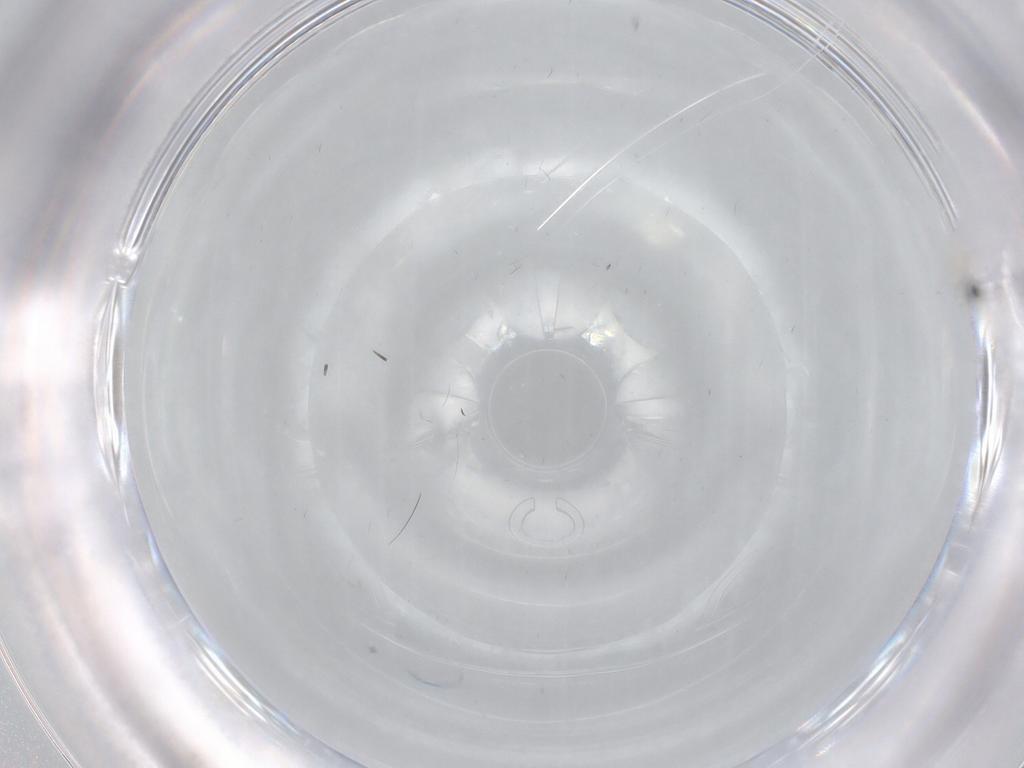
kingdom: Animalia
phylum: Arthropoda
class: Insecta
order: Diptera
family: Cecidomyiidae
